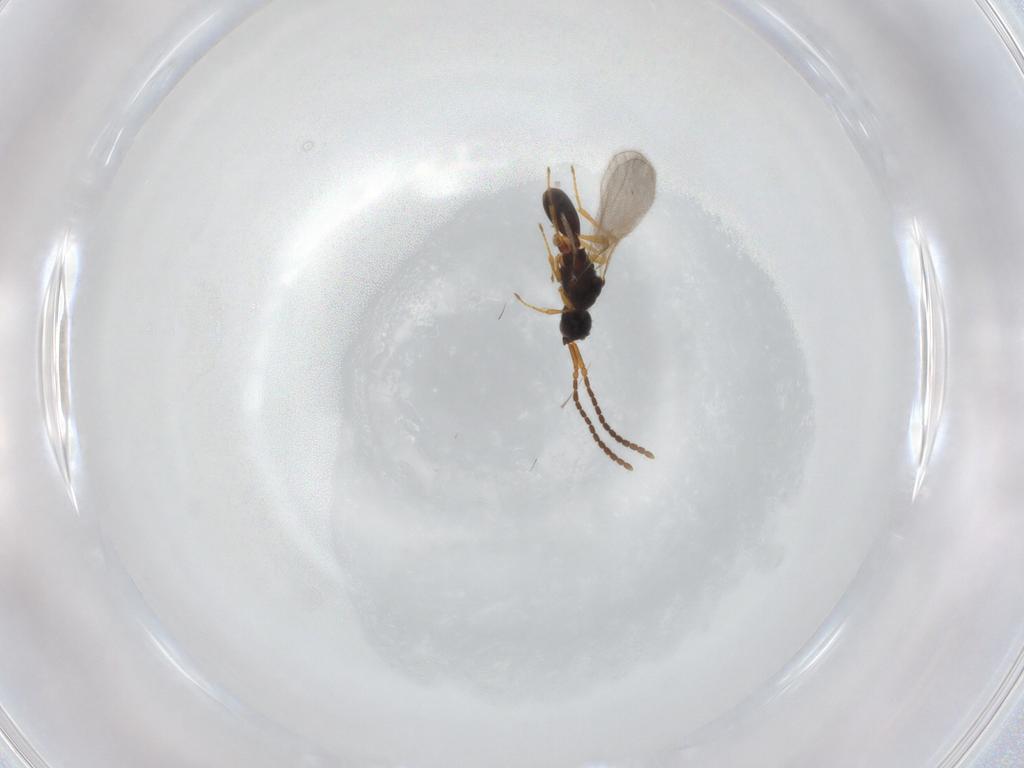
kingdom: Animalia
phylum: Arthropoda
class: Insecta
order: Hymenoptera
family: Diapriidae
